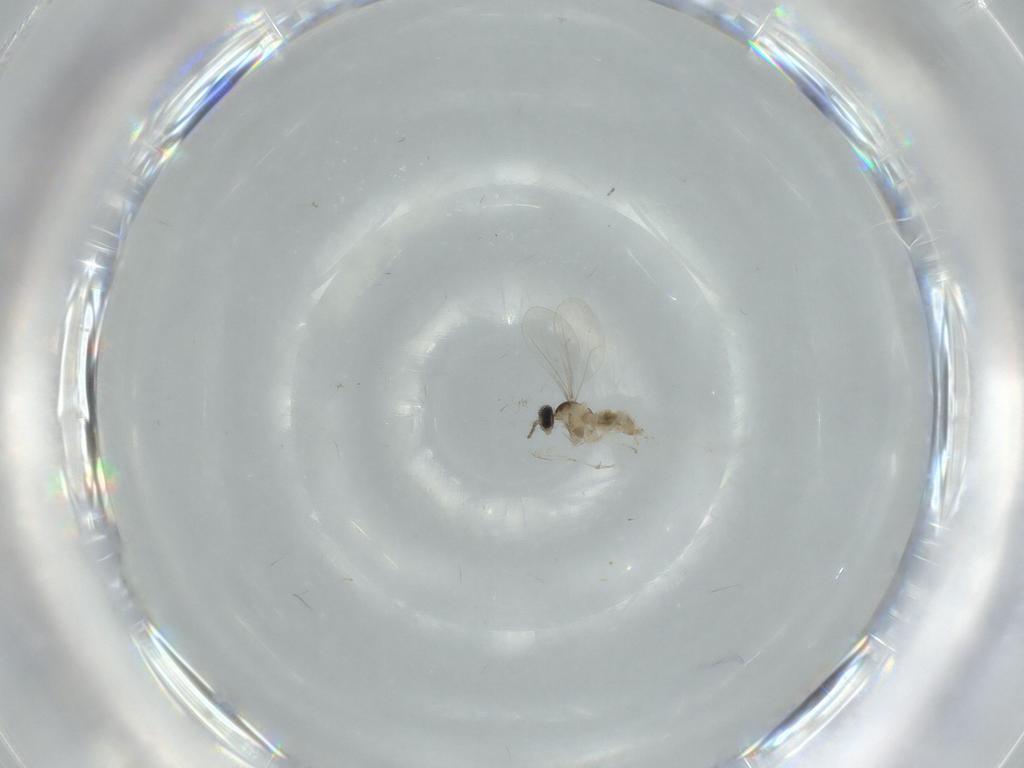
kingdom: Animalia
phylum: Arthropoda
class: Insecta
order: Diptera
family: Cecidomyiidae
